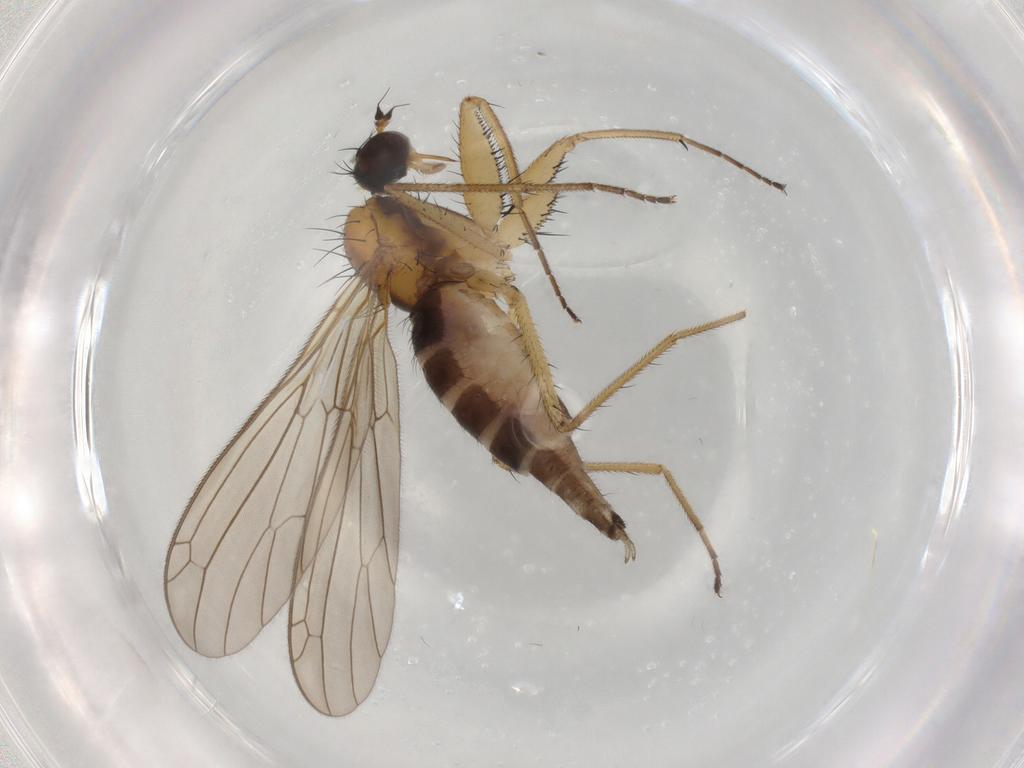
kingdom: Animalia
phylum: Arthropoda
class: Insecta
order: Diptera
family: Empididae
